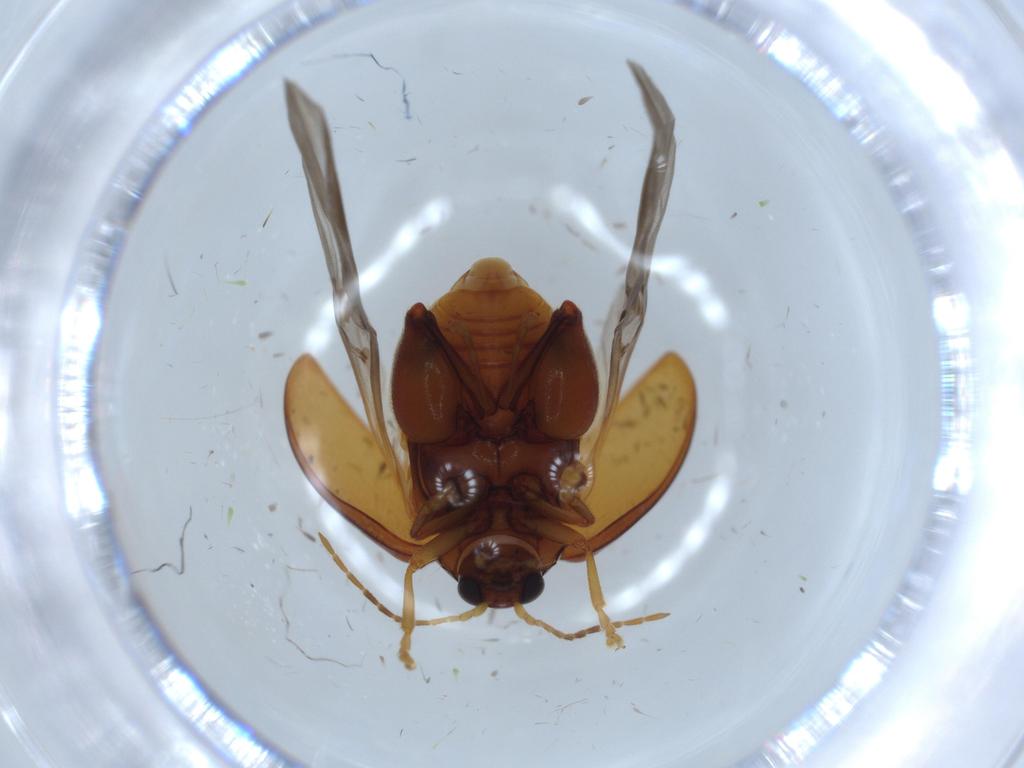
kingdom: Animalia
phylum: Arthropoda
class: Insecta
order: Coleoptera
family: Chrysomelidae
